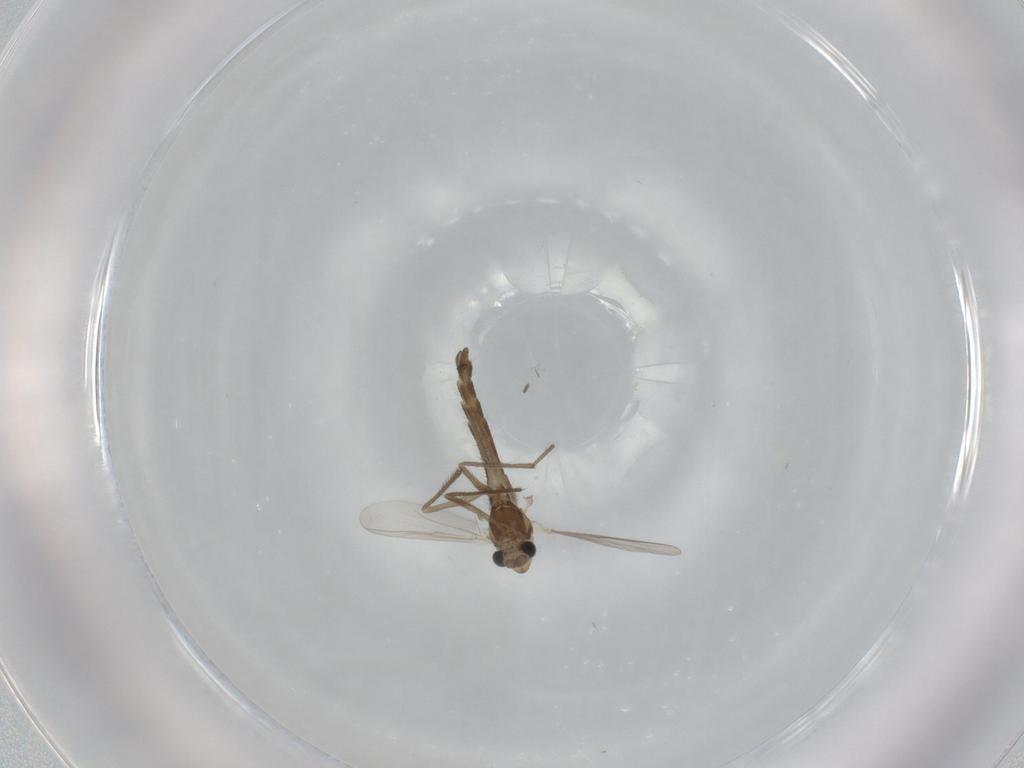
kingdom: Animalia
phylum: Arthropoda
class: Insecta
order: Diptera
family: Chironomidae
